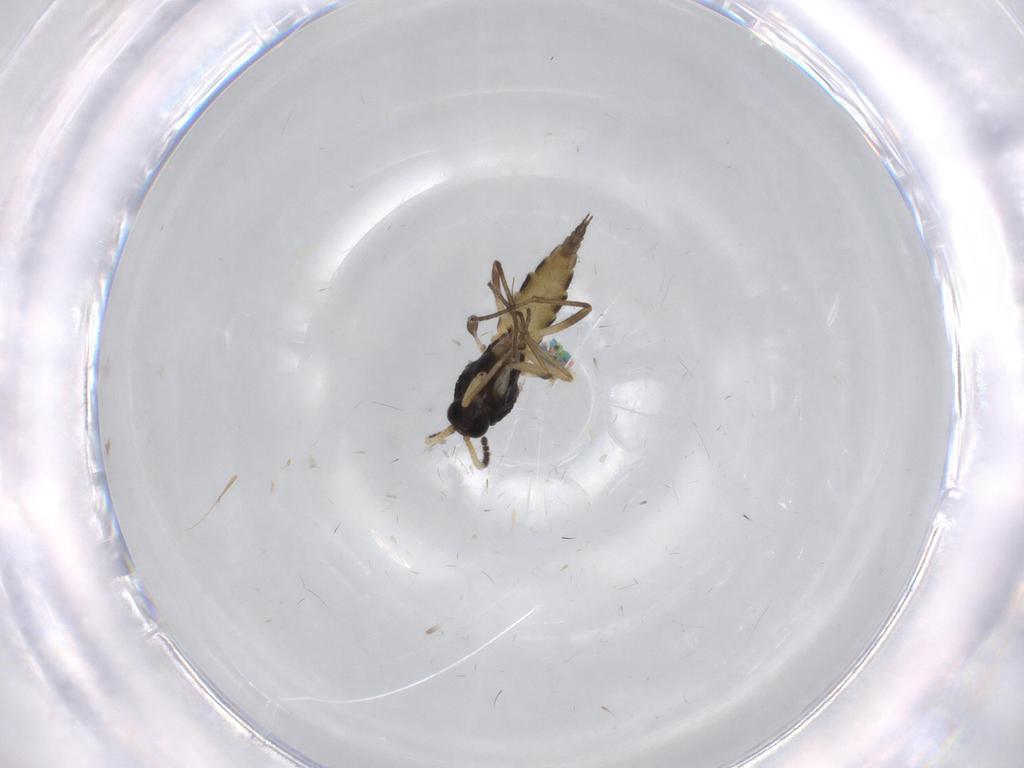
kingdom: Animalia
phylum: Arthropoda
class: Insecta
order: Diptera
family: Sciaridae
